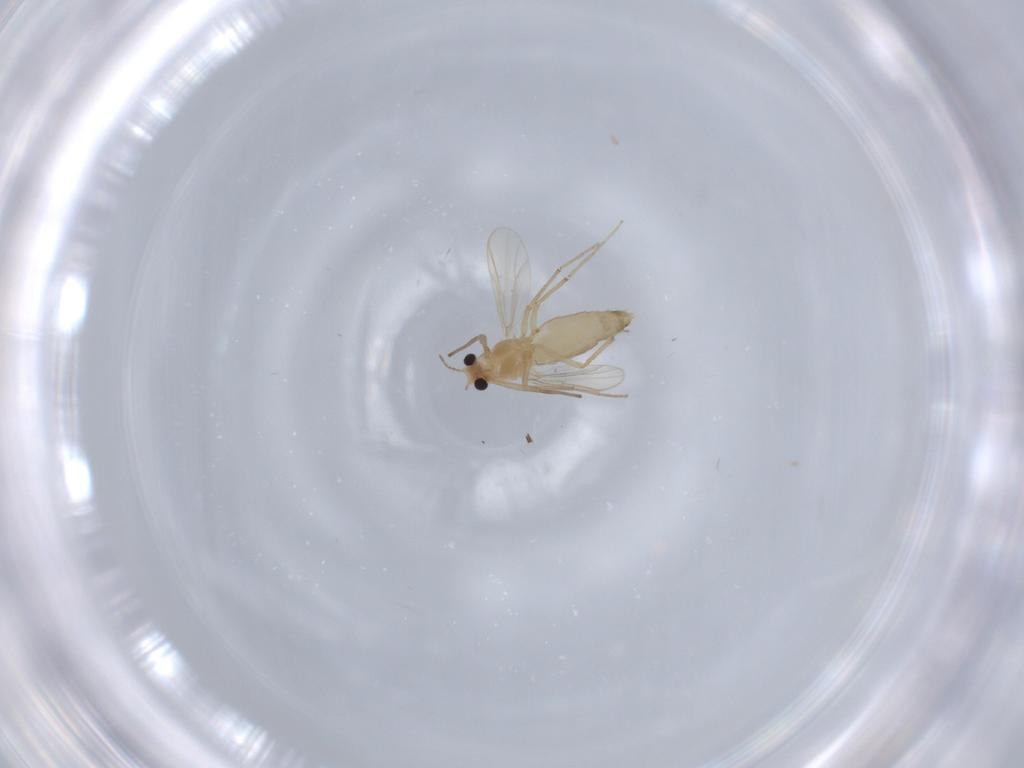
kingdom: Animalia
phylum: Arthropoda
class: Insecta
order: Diptera
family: Chironomidae
